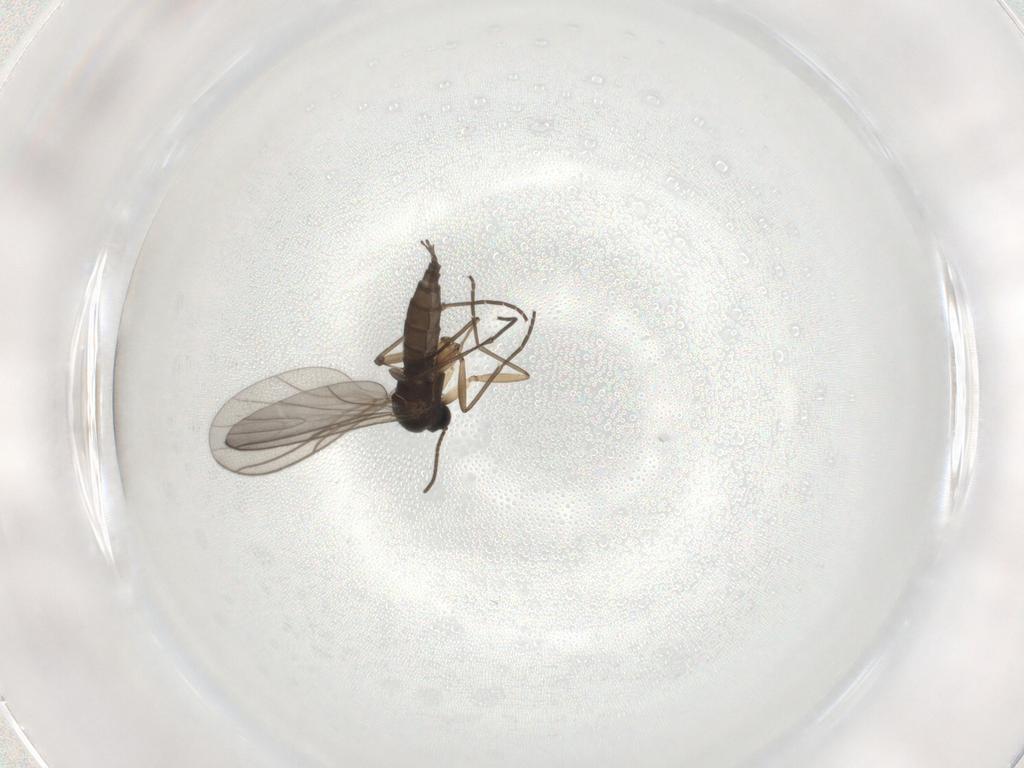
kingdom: Animalia
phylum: Arthropoda
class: Insecta
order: Diptera
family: Sciaridae
